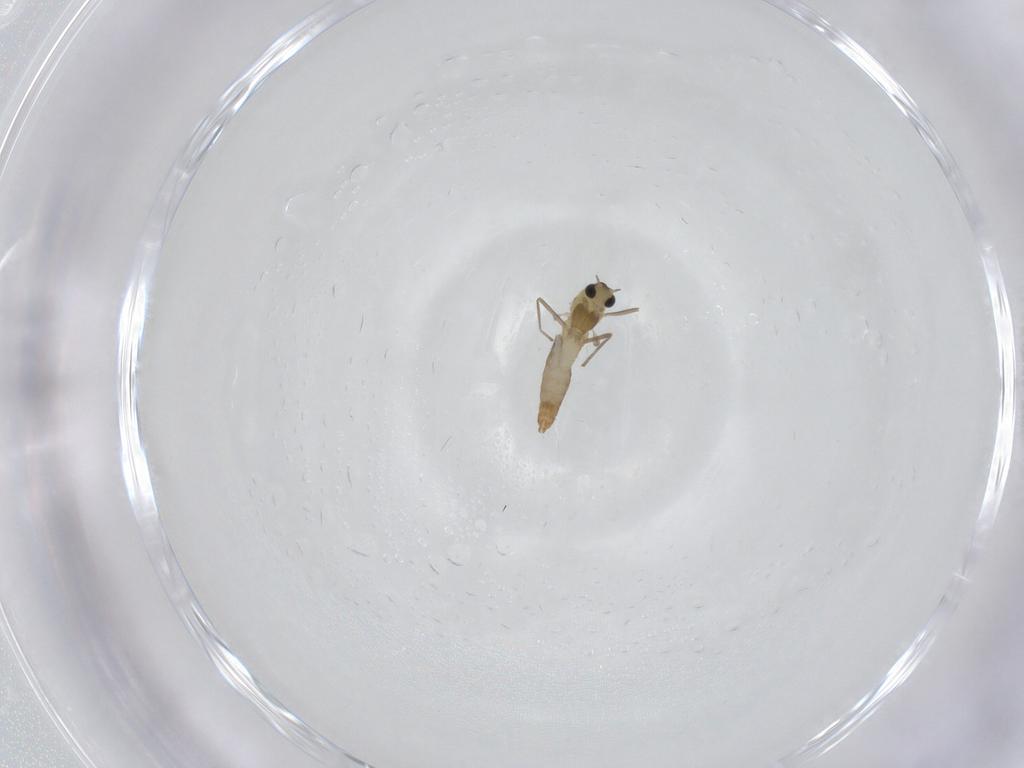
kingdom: Animalia
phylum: Arthropoda
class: Insecta
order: Diptera
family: Chironomidae
